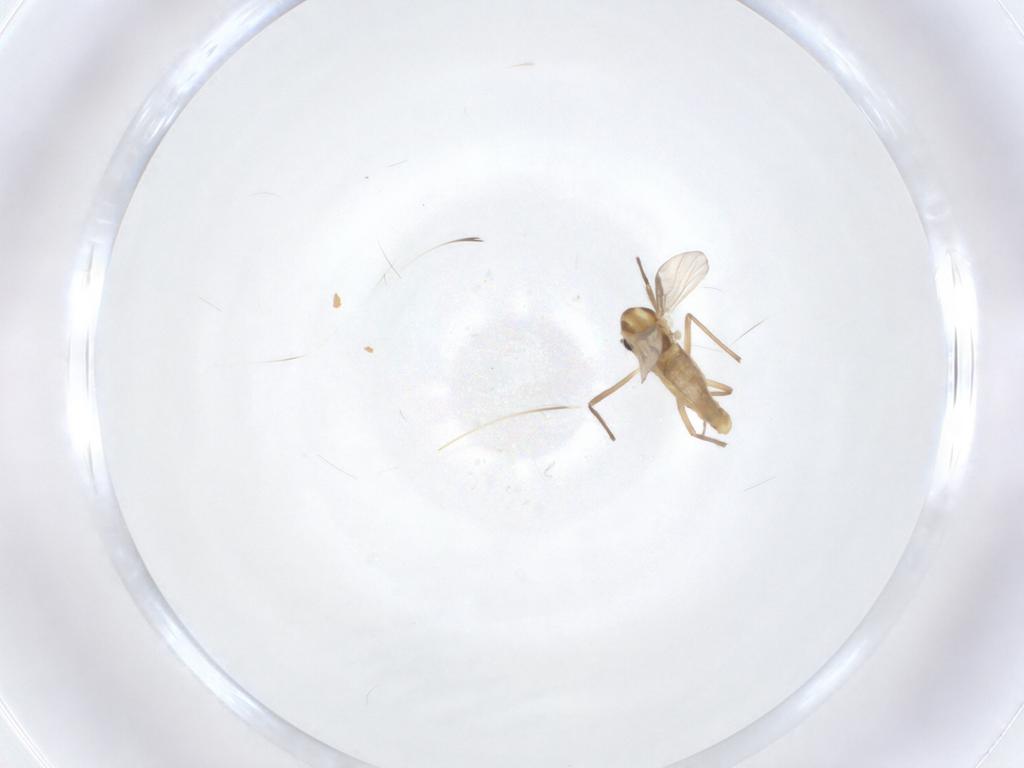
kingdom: Animalia
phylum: Arthropoda
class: Insecta
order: Diptera
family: Chironomidae
